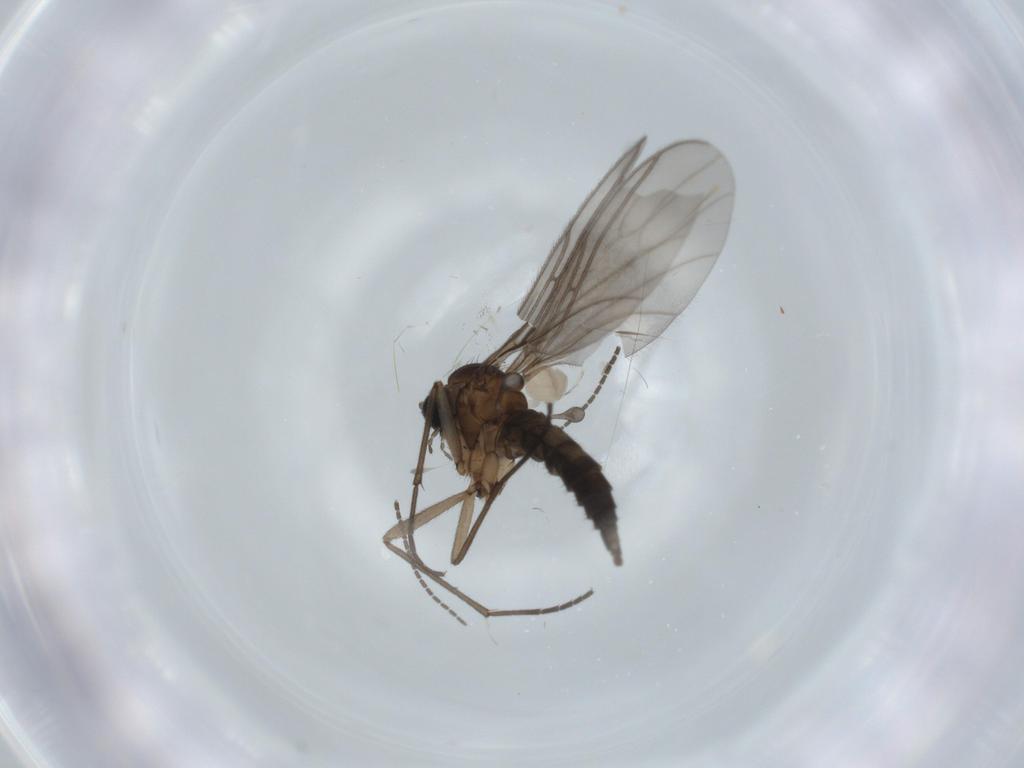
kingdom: Animalia
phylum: Arthropoda
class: Insecta
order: Diptera
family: Sciaridae
